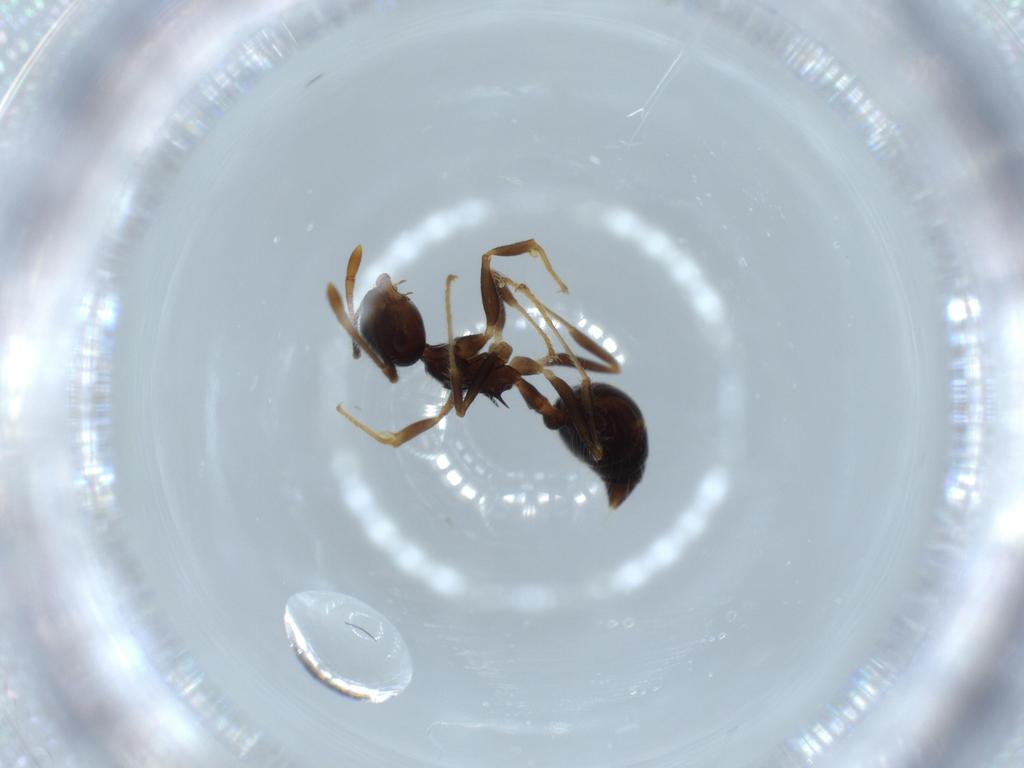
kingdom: Animalia
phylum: Arthropoda
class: Insecta
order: Hymenoptera
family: Formicidae
